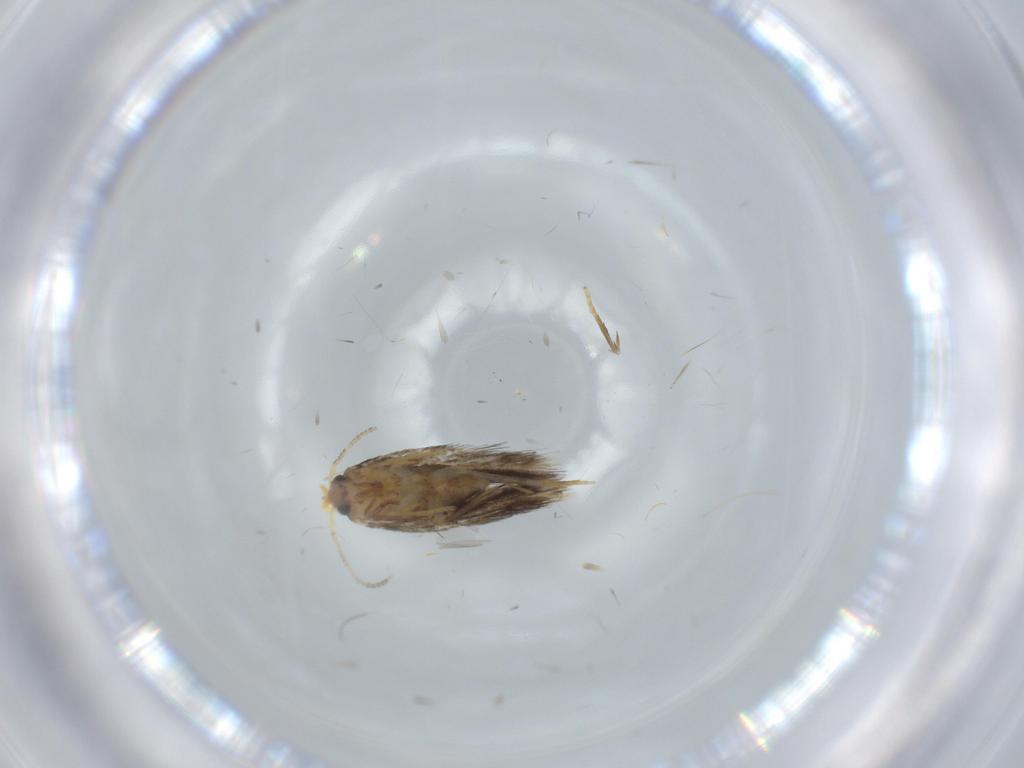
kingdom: Animalia
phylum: Arthropoda
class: Insecta
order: Lepidoptera
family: Nepticulidae
